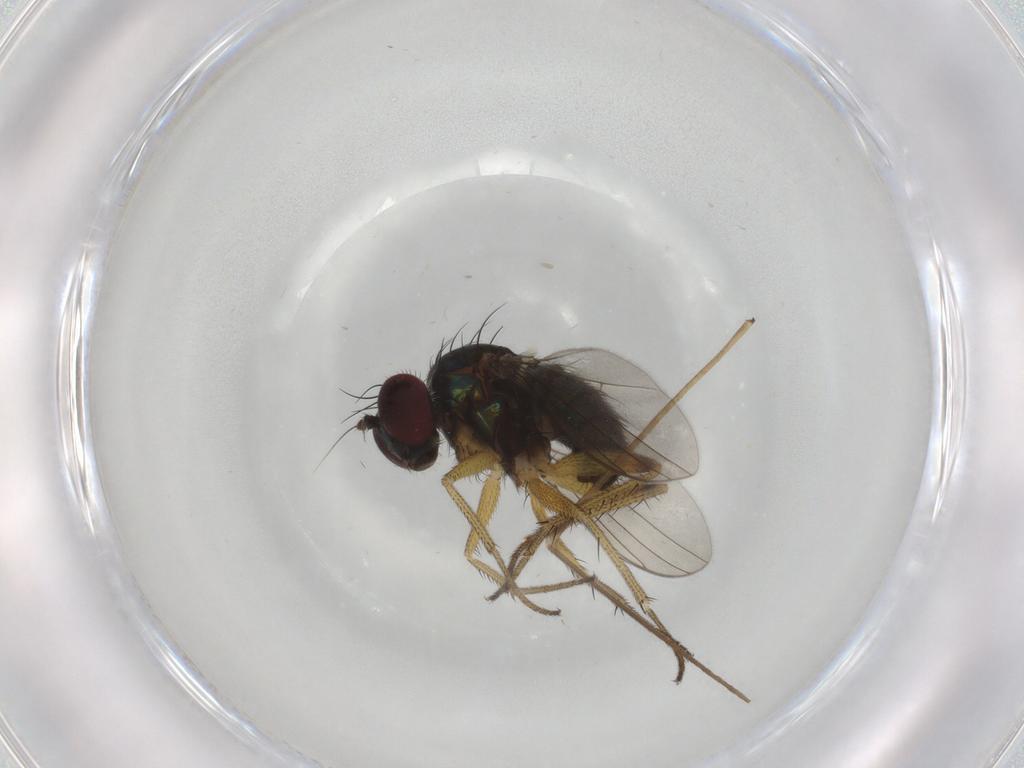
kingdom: Animalia
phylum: Arthropoda
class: Insecta
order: Diptera
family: Dolichopodidae
